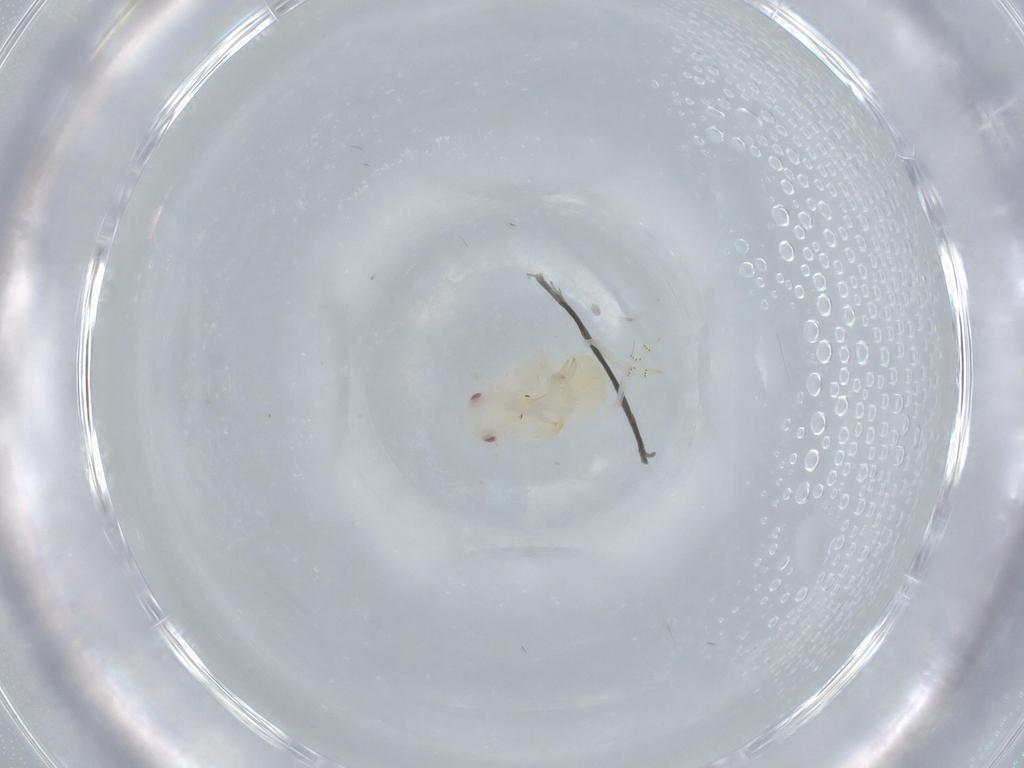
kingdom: Animalia
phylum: Arthropoda
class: Insecta
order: Hemiptera
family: Flatidae
